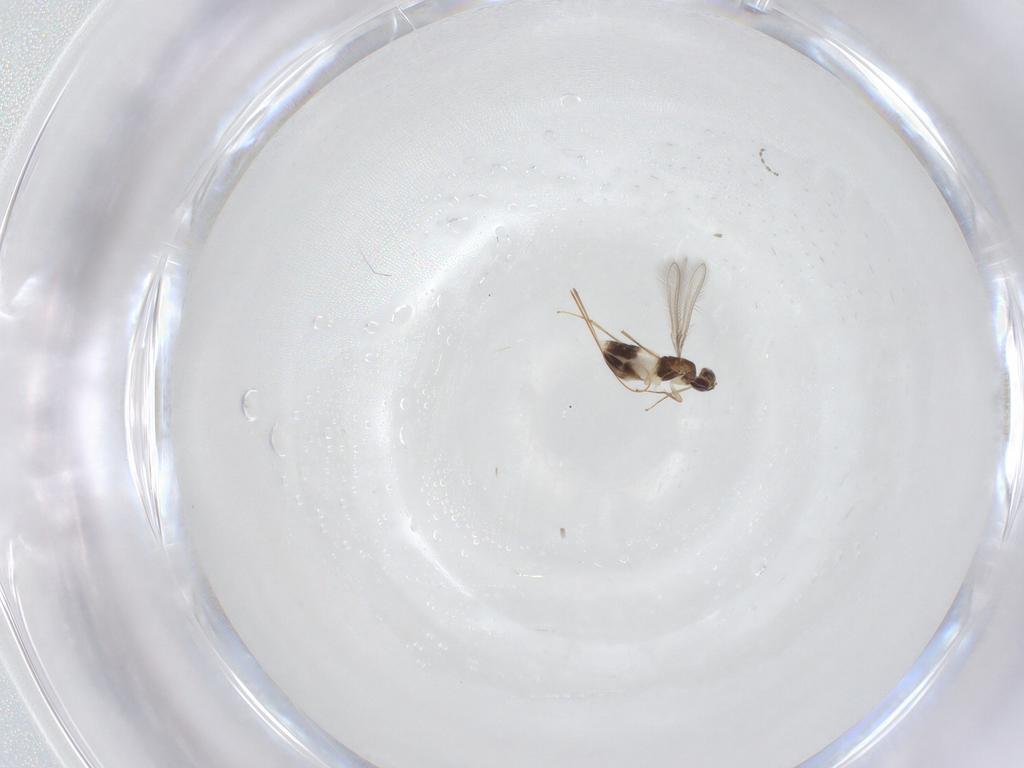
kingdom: Animalia
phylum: Arthropoda
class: Insecta
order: Hymenoptera
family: Mymaridae
